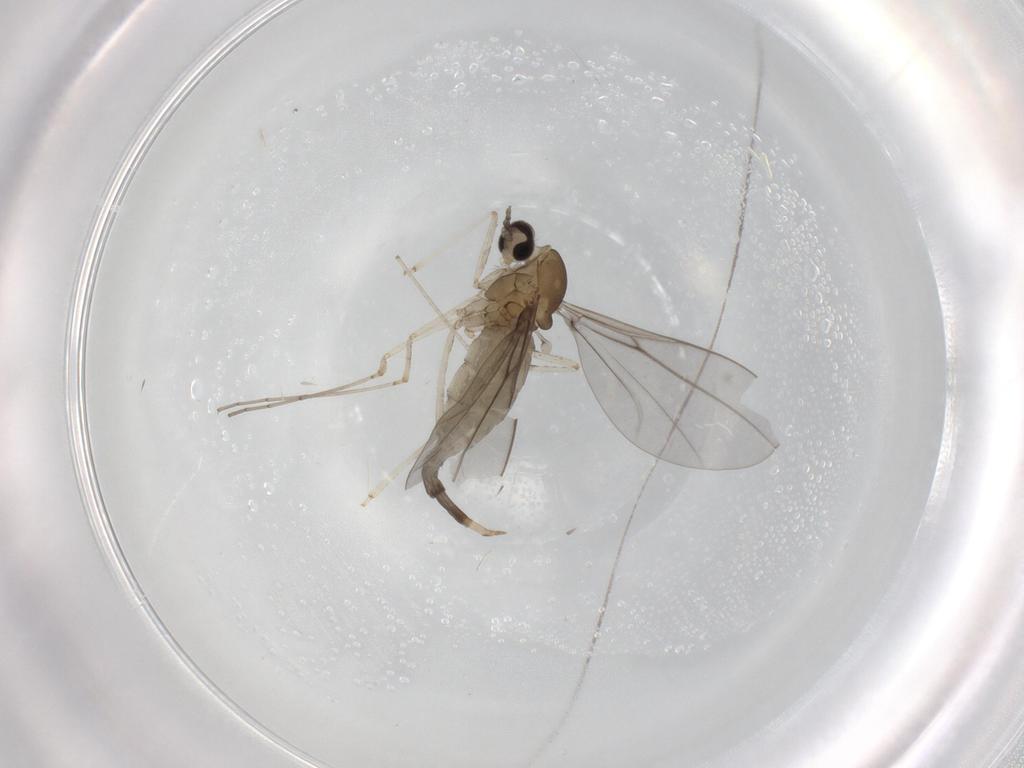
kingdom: Animalia
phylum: Arthropoda
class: Insecta
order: Diptera
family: Cecidomyiidae
